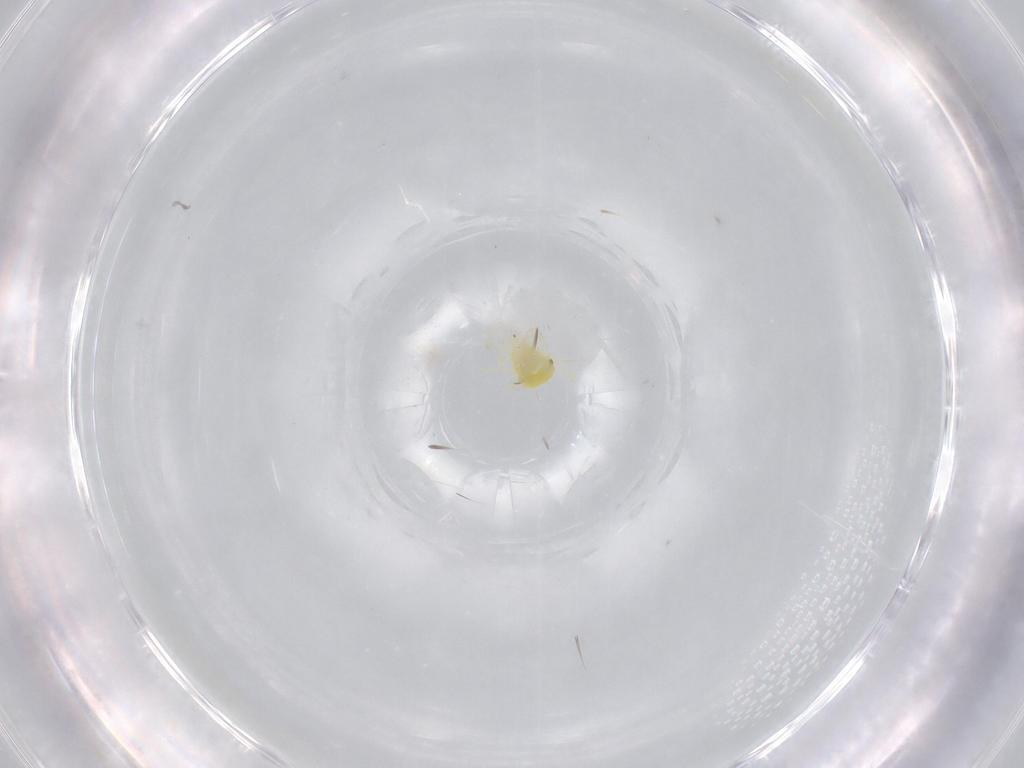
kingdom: Animalia
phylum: Arthropoda
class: Insecta
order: Hemiptera
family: Aleyrodidae
